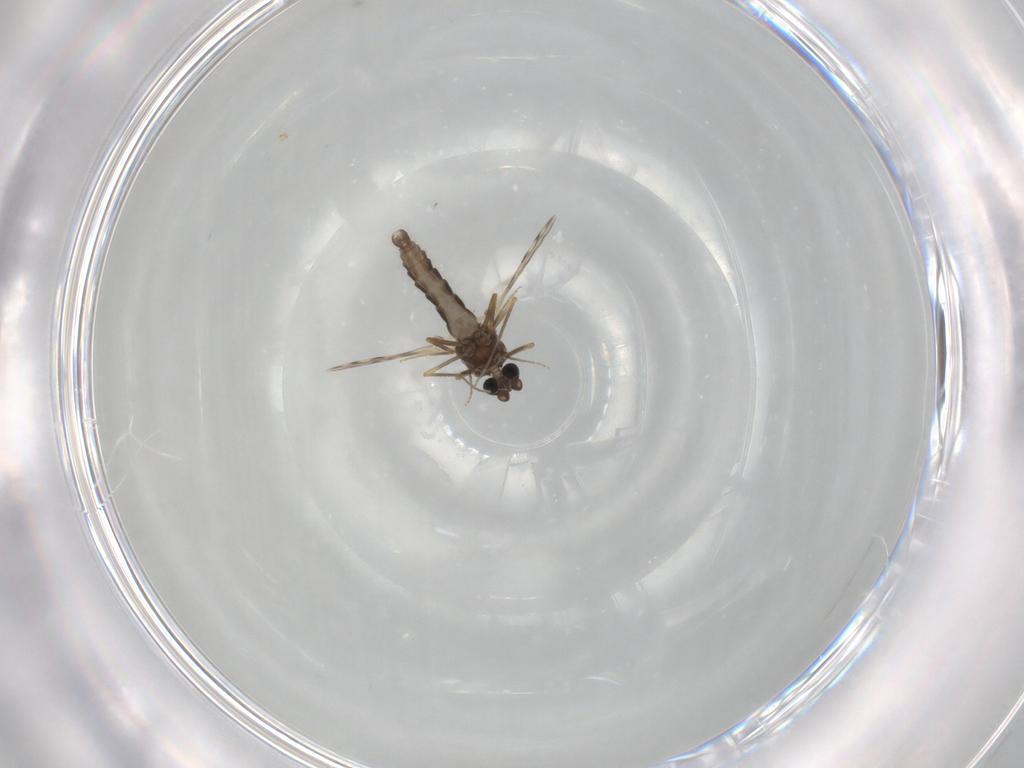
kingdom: Animalia
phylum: Arthropoda
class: Insecta
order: Diptera
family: Ceratopogonidae
